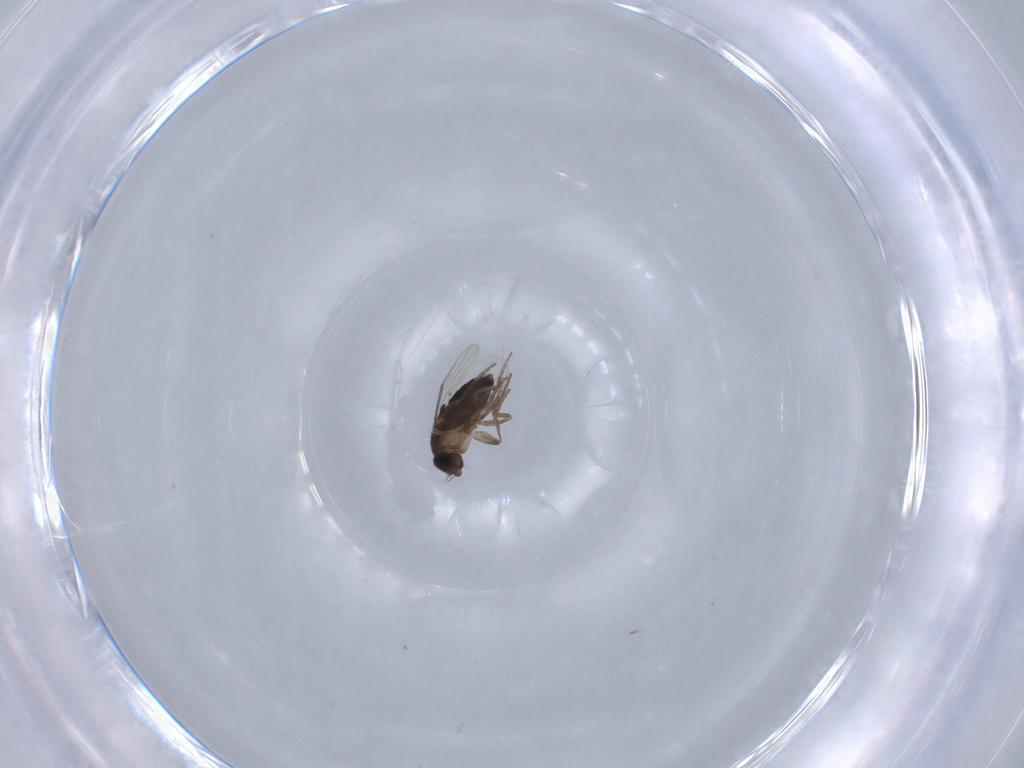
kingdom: Animalia
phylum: Arthropoda
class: Insecta
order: Diptera
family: Phoridae
